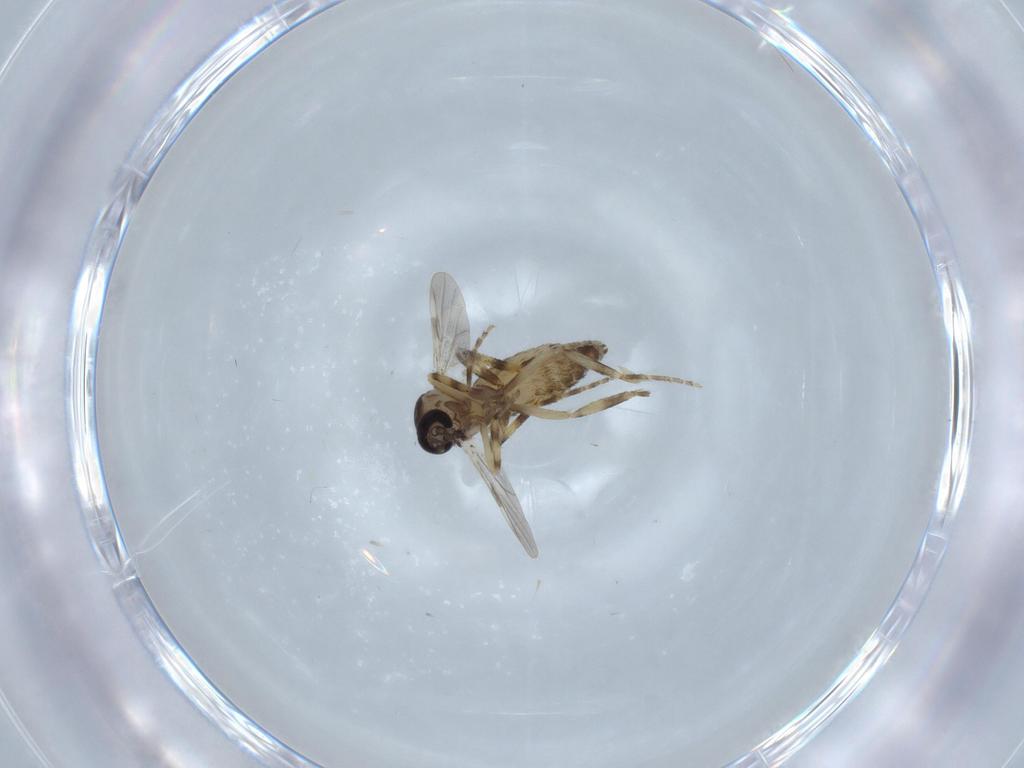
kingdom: Animalia
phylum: Arthropoda
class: Insecta
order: Diptera
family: Ceratopogonidae
